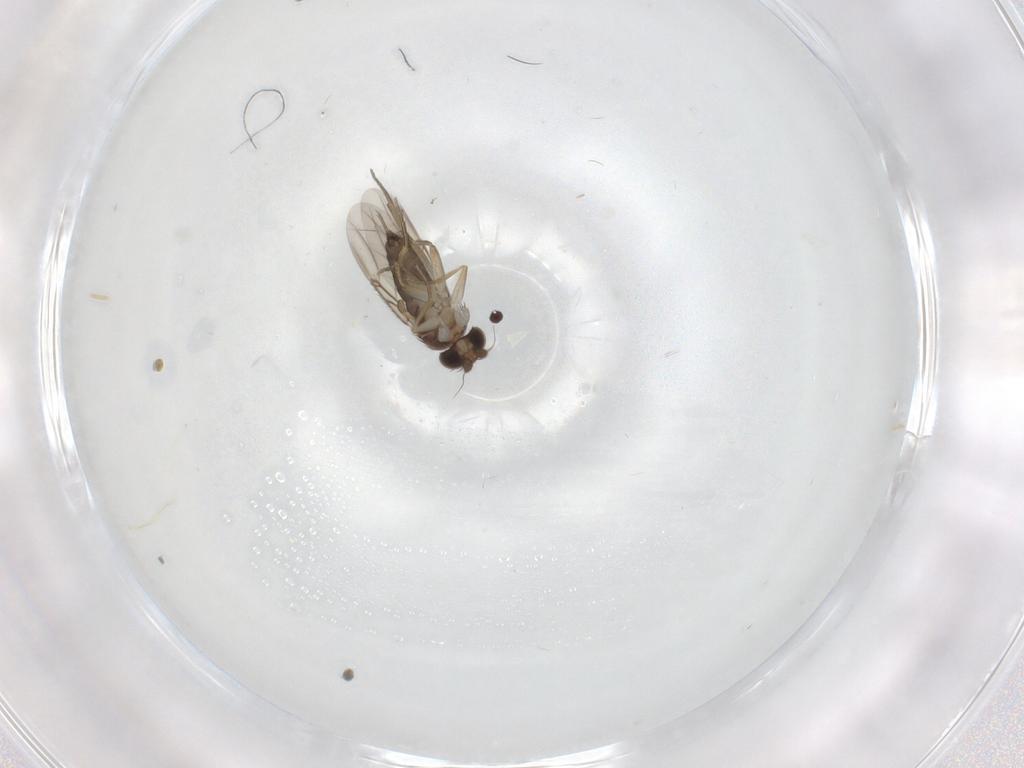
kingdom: Animalia
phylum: Arthropoda
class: Insecta
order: Diptera
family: Phoridae
